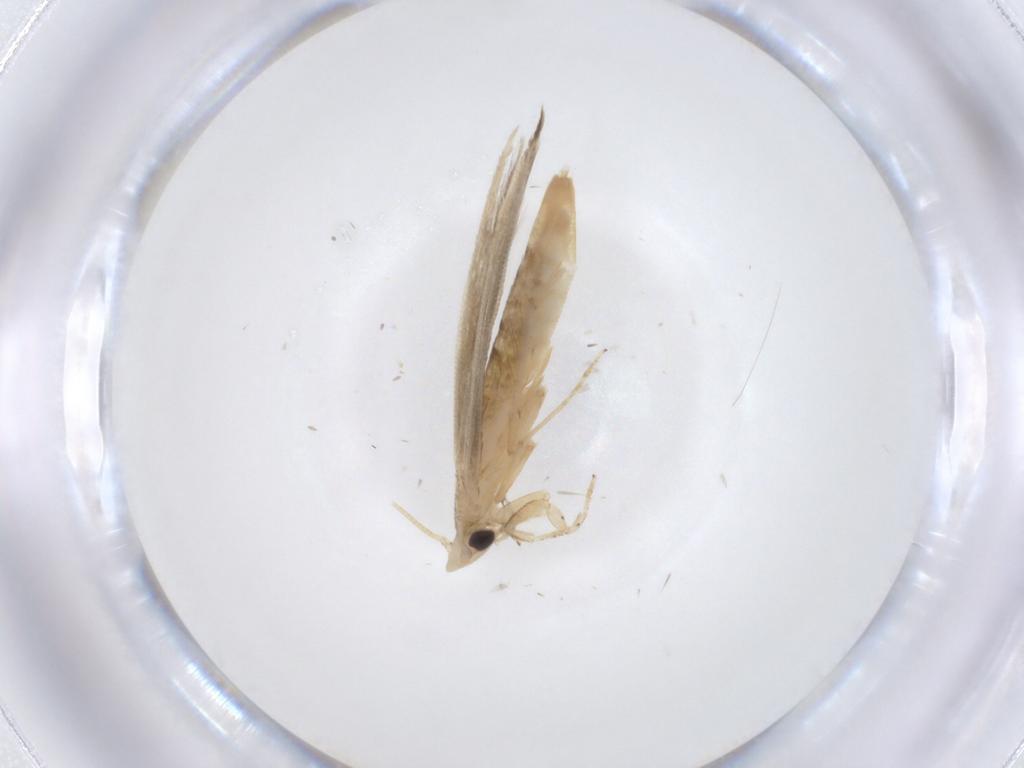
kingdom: Animalia
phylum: Arthropoda
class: Insecta
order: Lepidoptera
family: Tineidae
